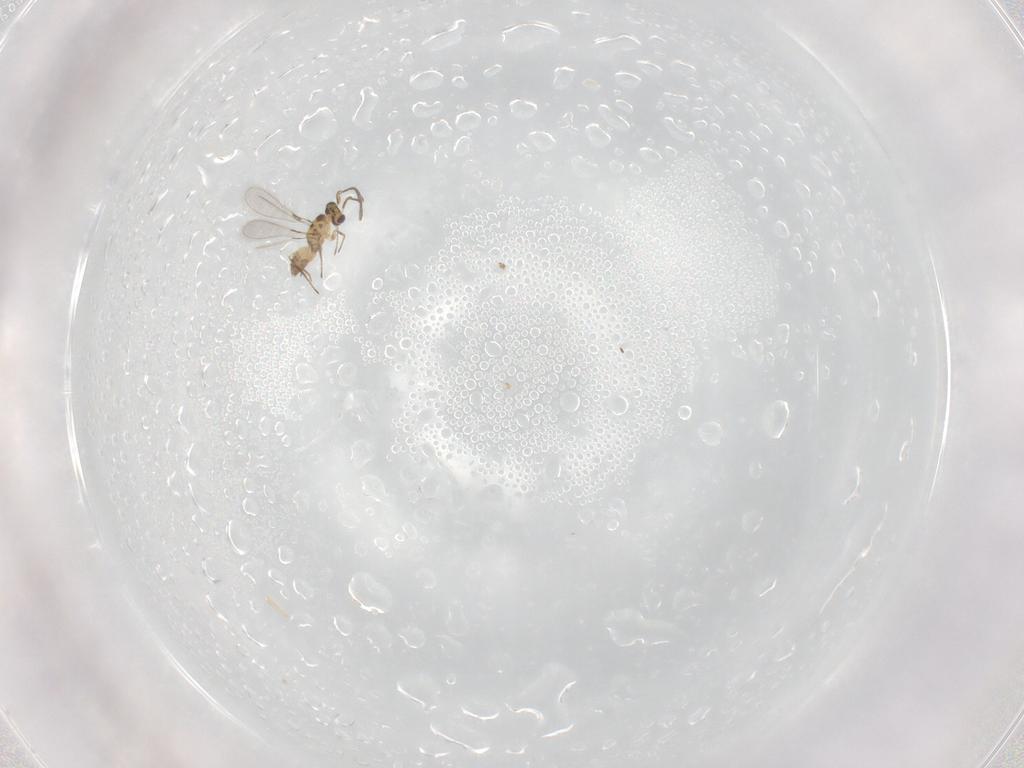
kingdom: Animalia
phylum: Arthropoda
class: Insecta
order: Hymenoptera
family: Mymaridae
